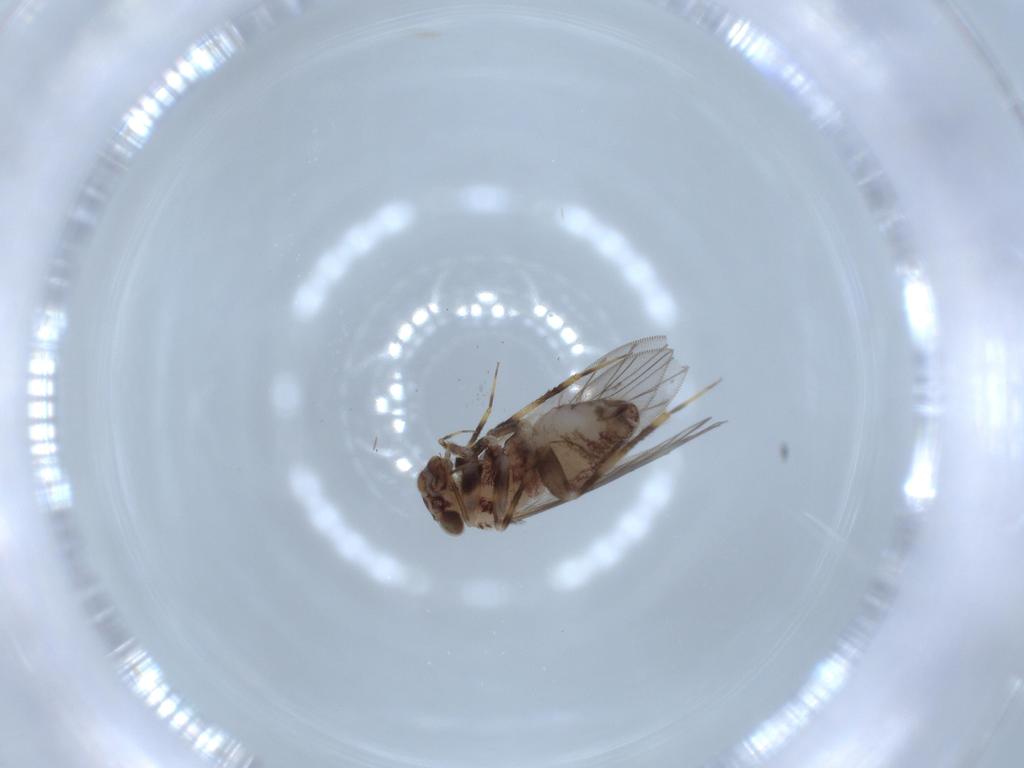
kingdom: Animalia
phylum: Arthropoda
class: Insecta
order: Psocodea
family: Lepidopsocidae
